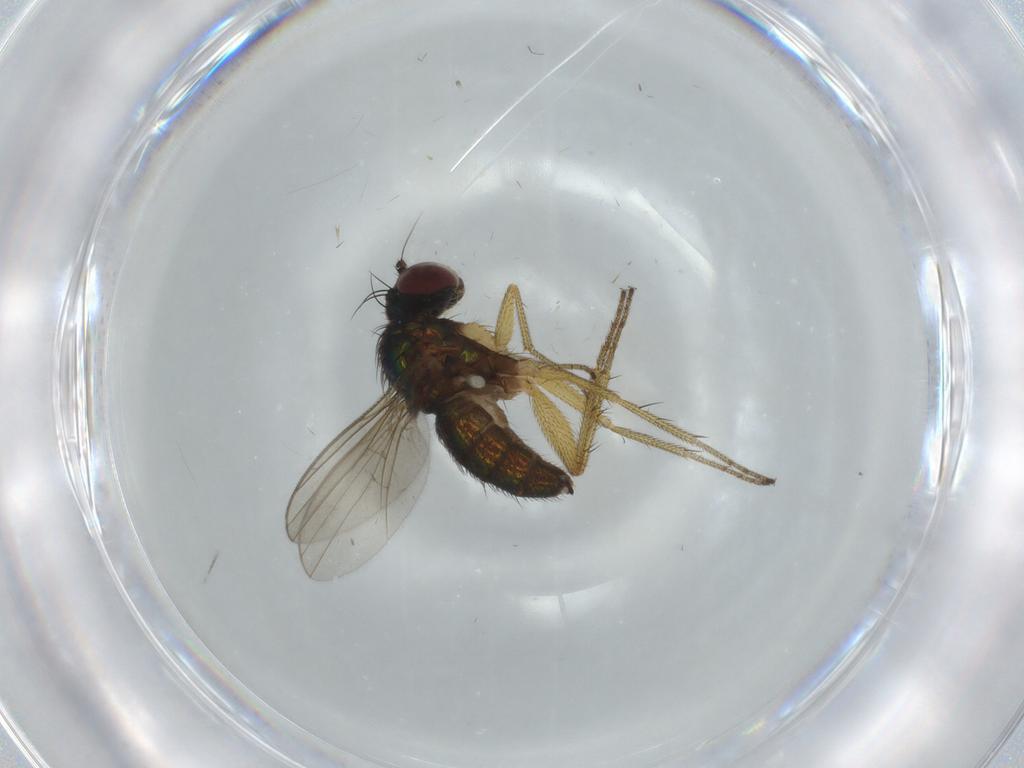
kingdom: Animalia
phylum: Arthropoda
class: Insecta
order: Diptera
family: Dolichopodidae
